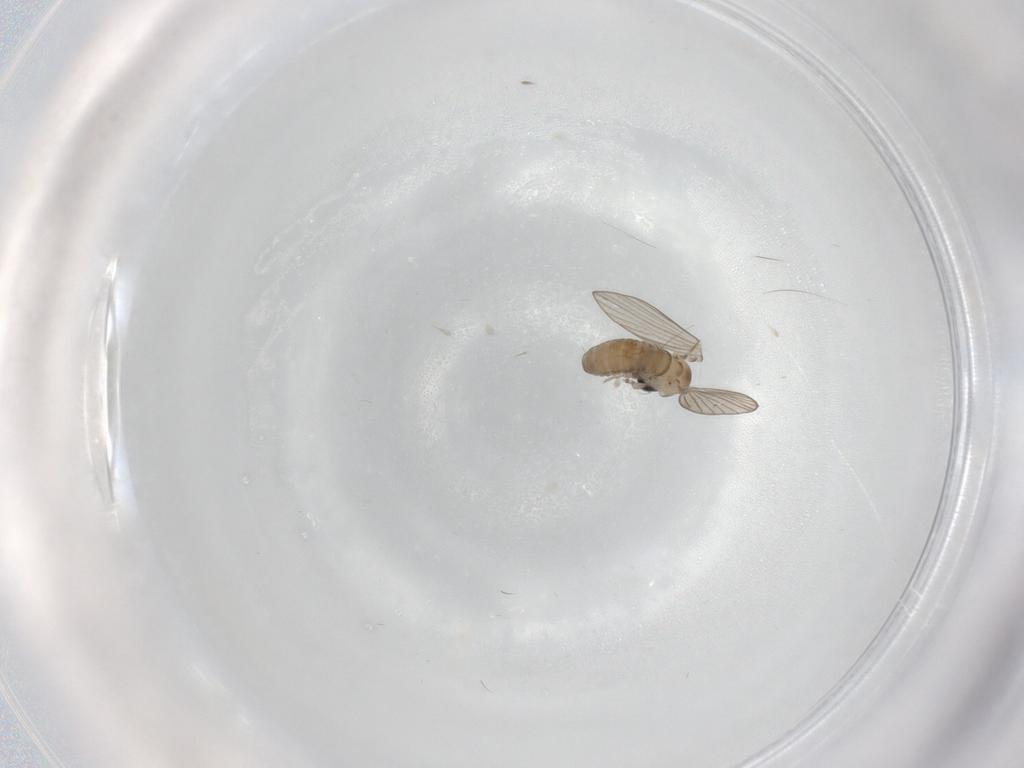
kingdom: Animalia
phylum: Arthropoda
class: Insecta
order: Diptera
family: Psychodidae
